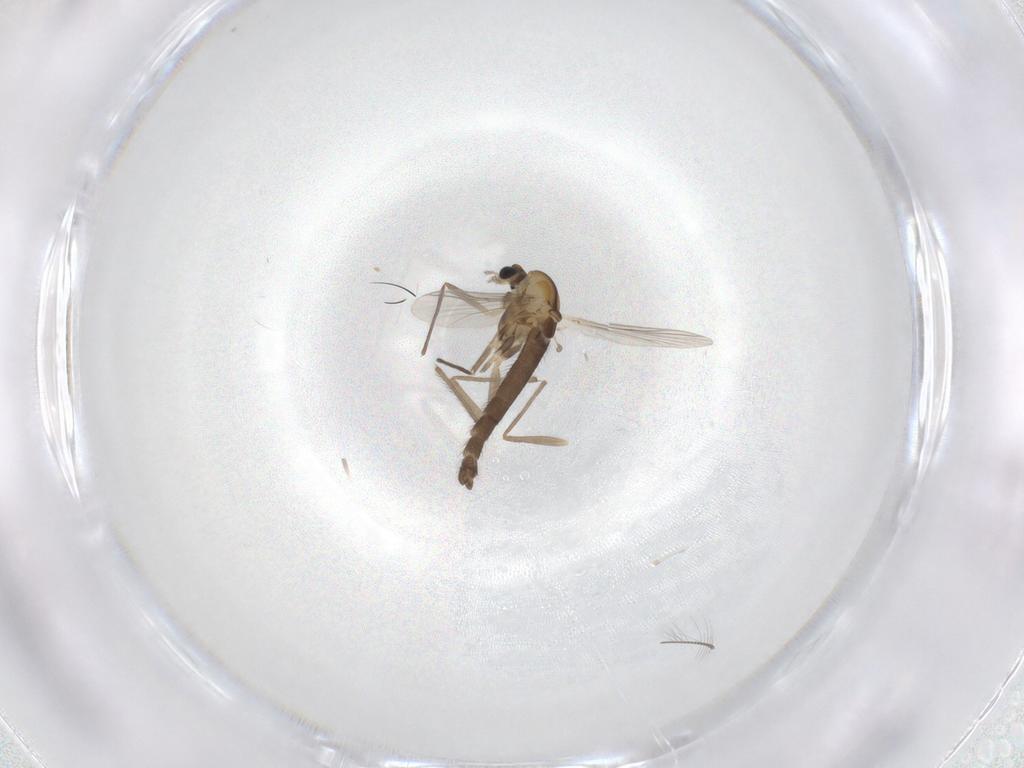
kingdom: Animalia
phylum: Arthropoda
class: Insecta
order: Diptera
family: Chironomidae
